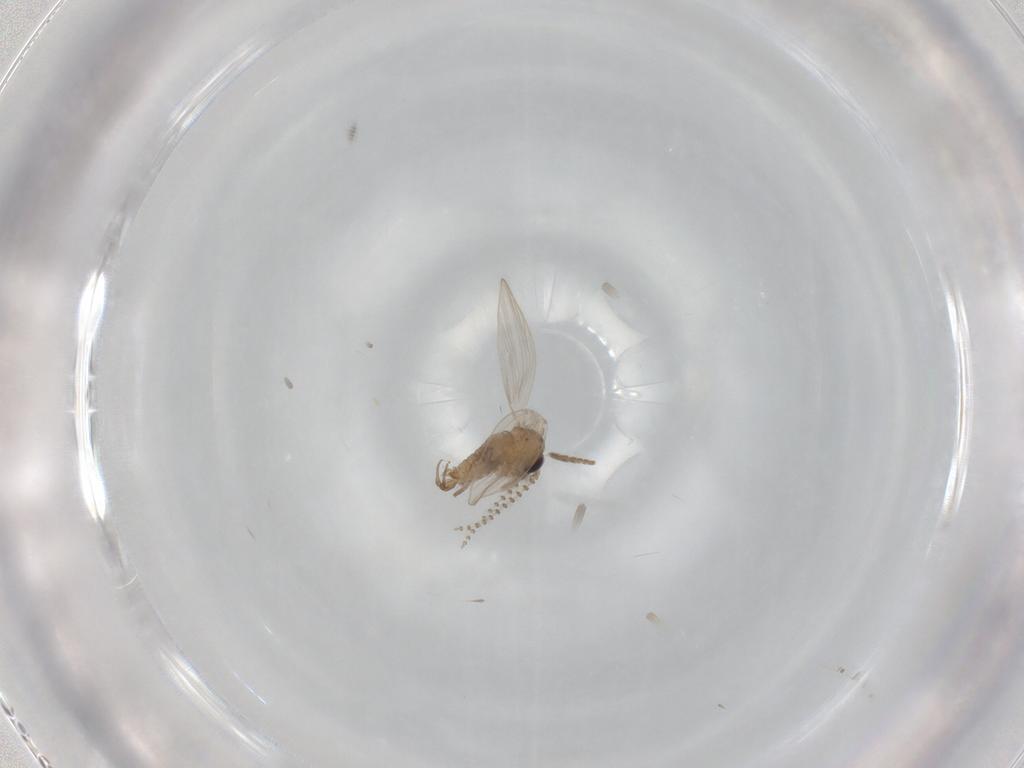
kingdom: Animalia
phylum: Arthropoda
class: Insecta
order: Diptera
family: Psychodidae
